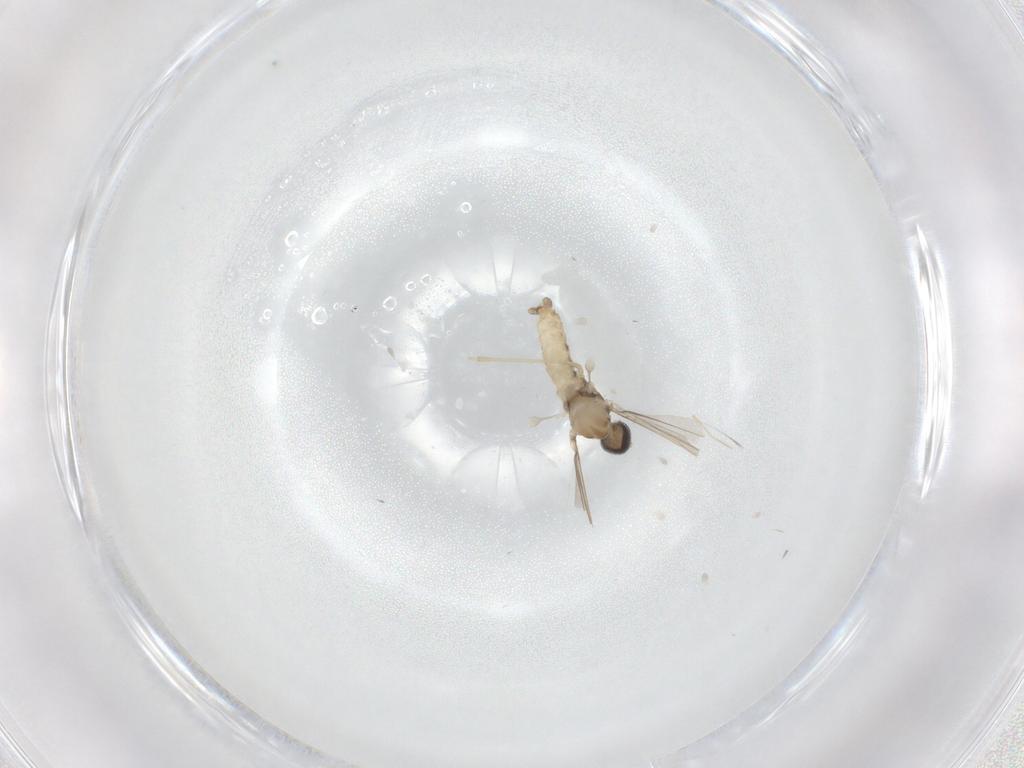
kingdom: Animalia
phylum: Arthropoda
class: Insecta
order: Diptera
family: Cecidomyiidae
